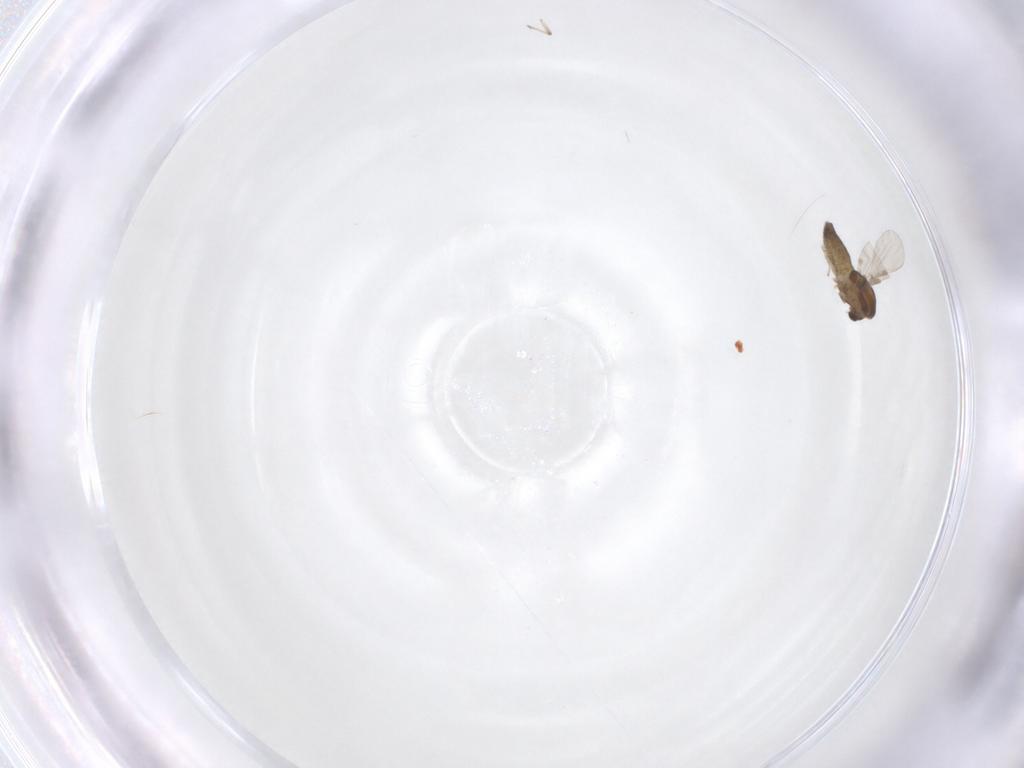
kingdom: Animalia
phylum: Arthropoda
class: Insecta
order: Diptera
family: Chironomidae
